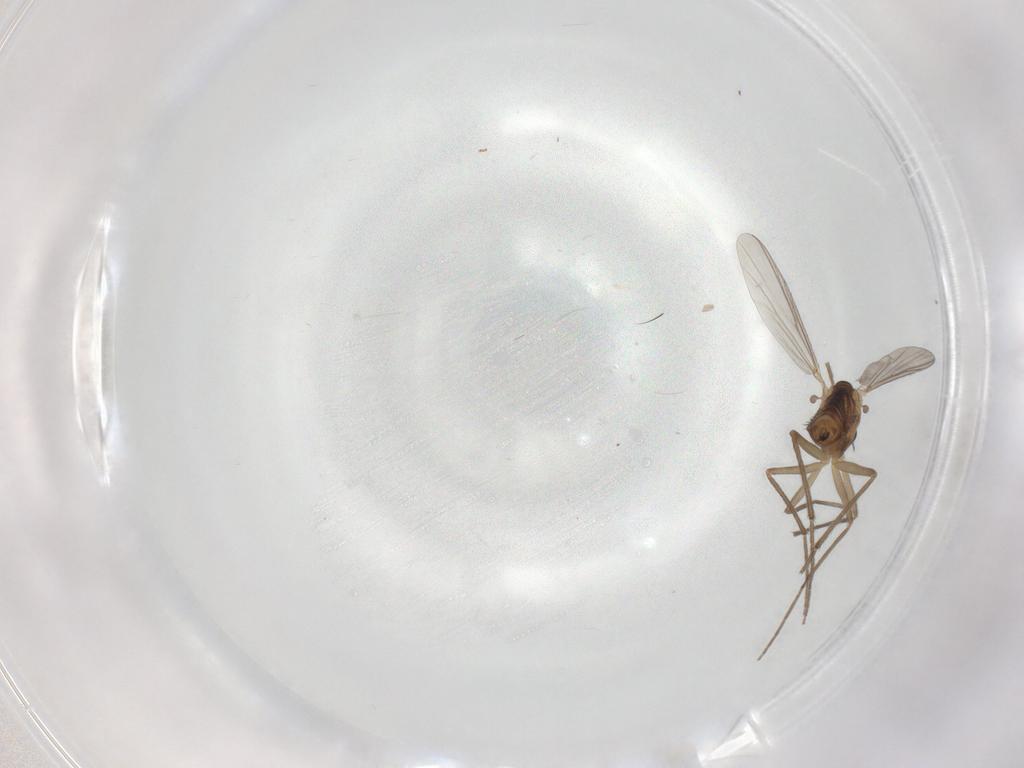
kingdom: Animalia
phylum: Arthropoda
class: Insecta
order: Diptera
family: Chironomidae
